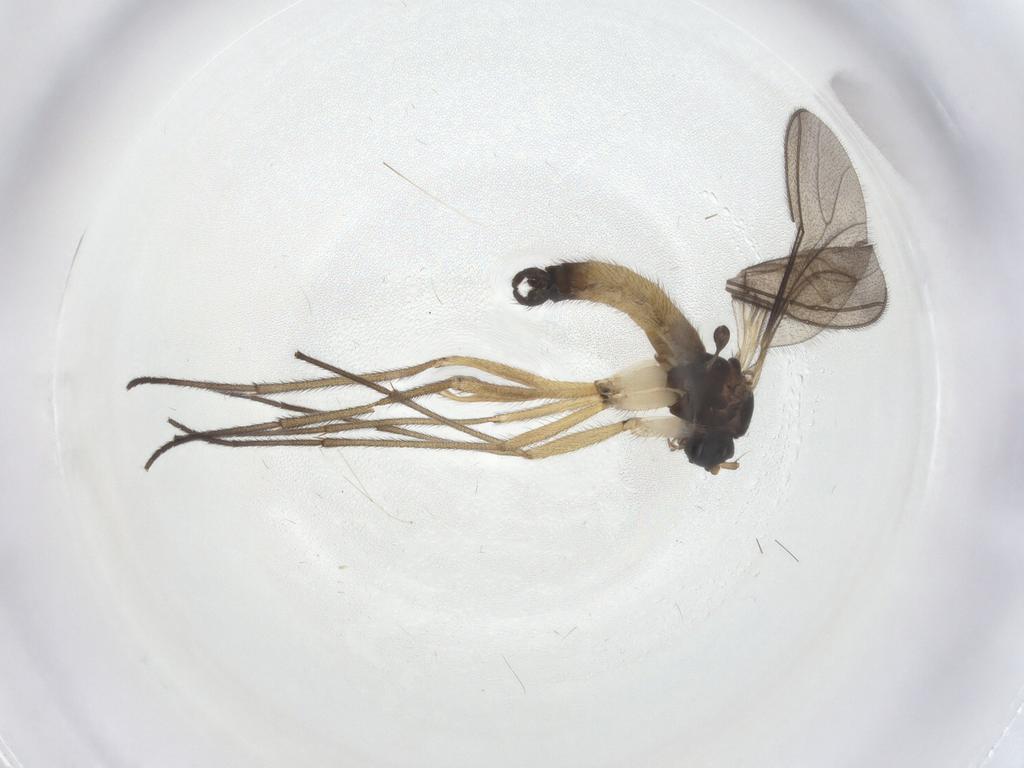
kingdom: Animalia
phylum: Arthropoda
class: Insecta
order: Diptera
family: Sciaridae
